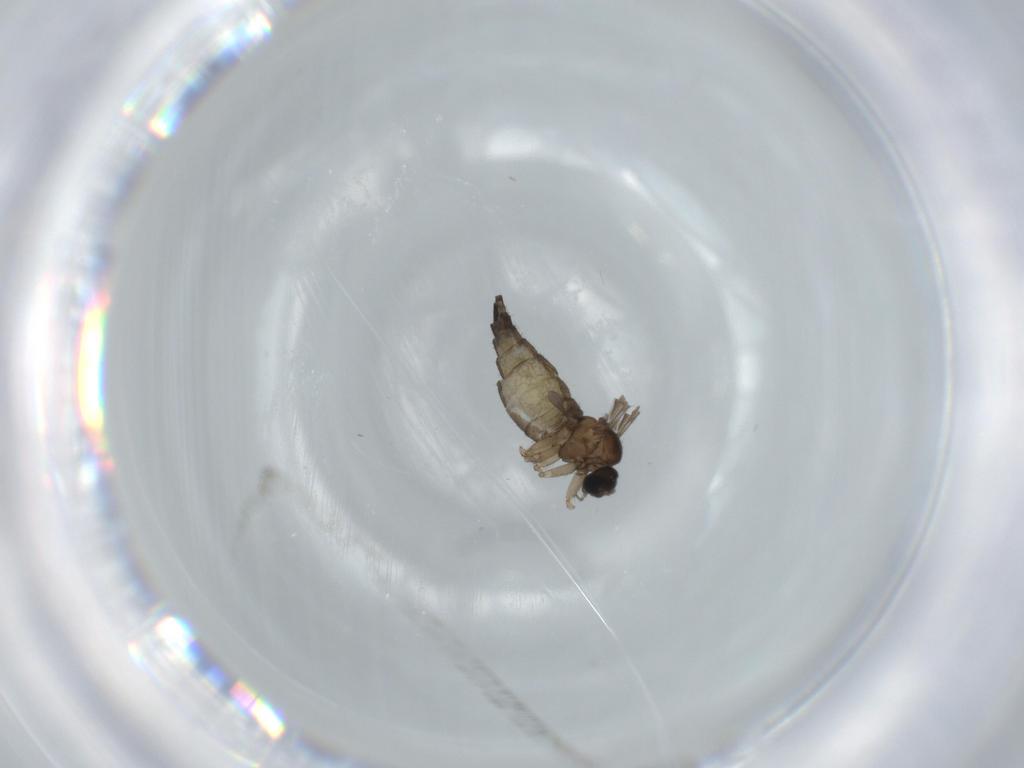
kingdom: Animalia
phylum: Arthropoda
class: Insecta
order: Diptera
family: Sciaridae
